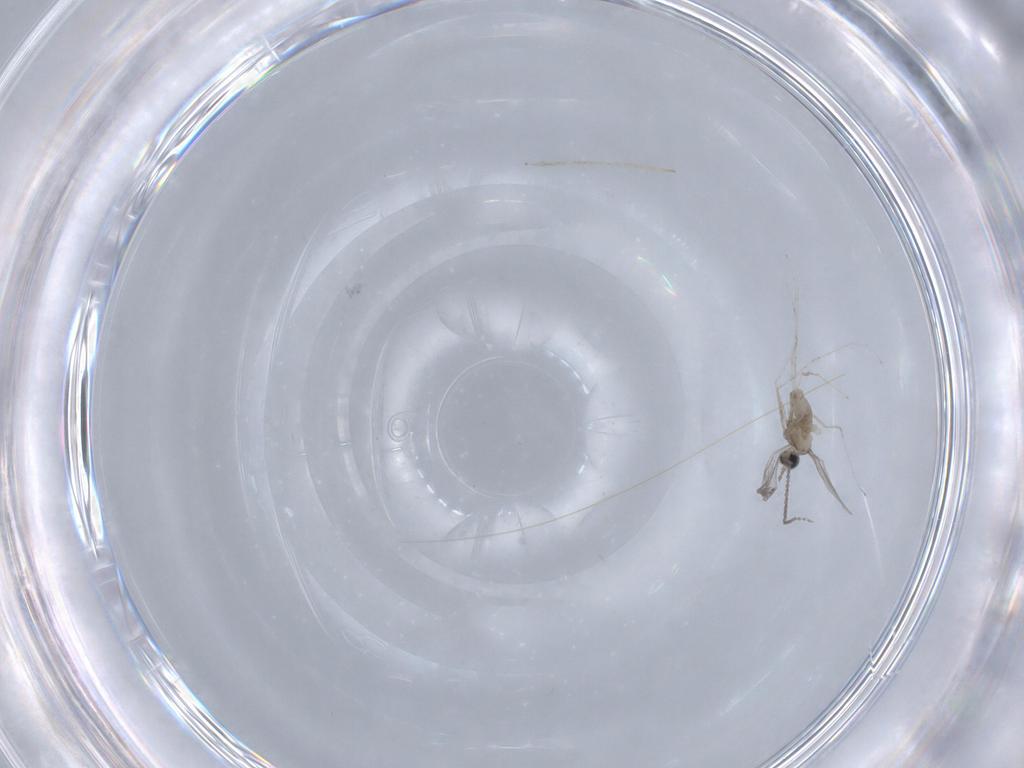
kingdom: Animalia
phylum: Arthropoda
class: Insecta
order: Diptera
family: Cecidomyiidae
